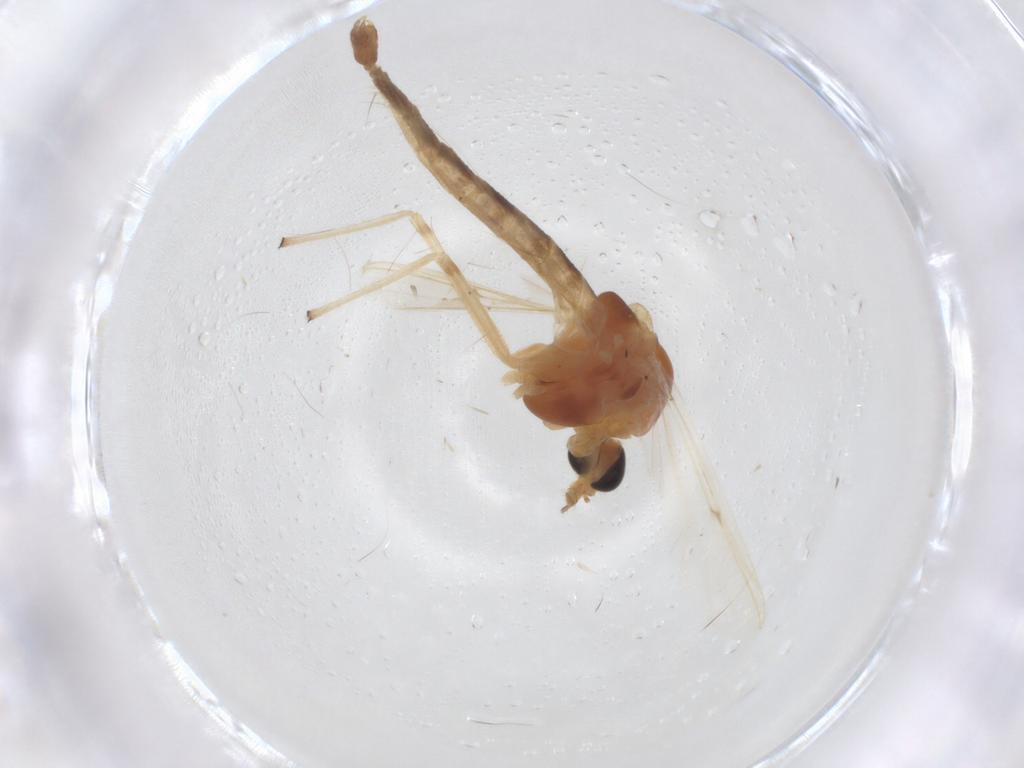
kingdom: Animalia
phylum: Arthropoda
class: Insecta
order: Diptera
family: Chironomidae
